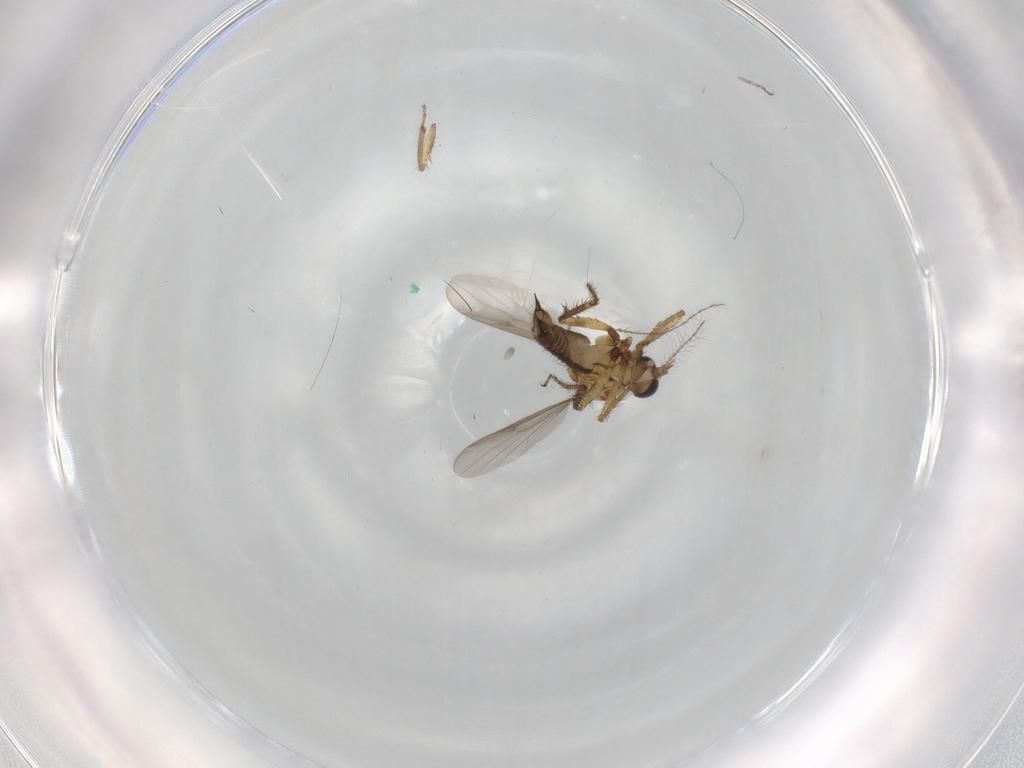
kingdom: Animalia
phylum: Arthropoda
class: Insecta
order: Diptera
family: Ceratopogonidae
